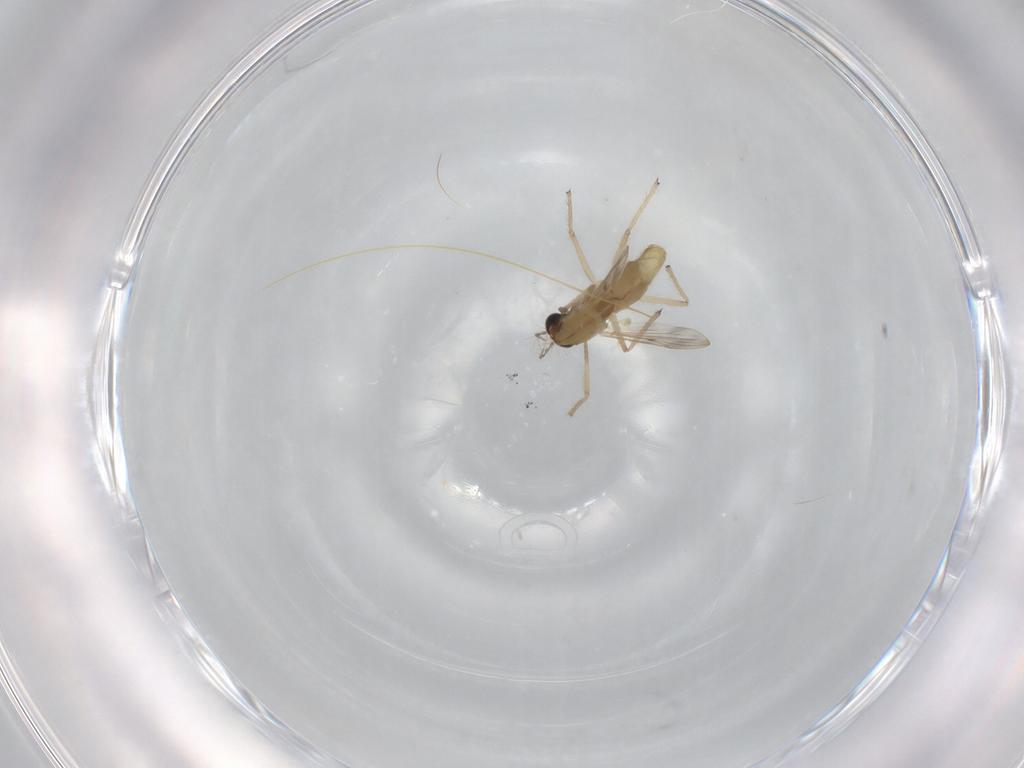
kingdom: Animalia
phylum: Arthropoda
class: Insecta
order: Diptera
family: Chironomidae
